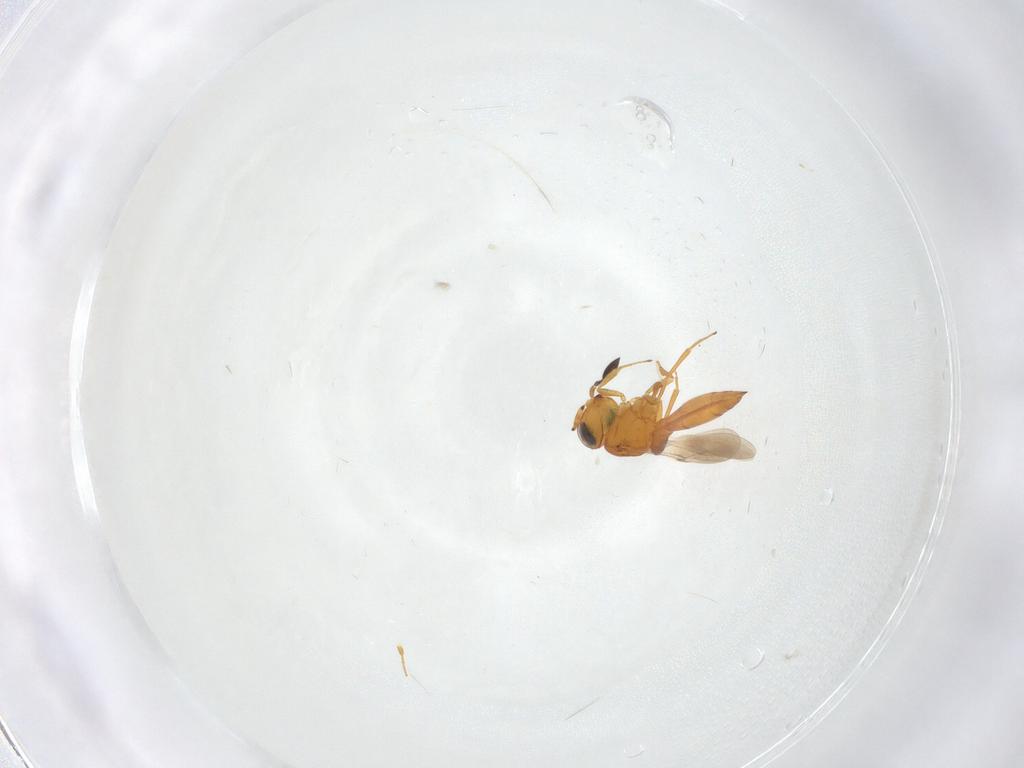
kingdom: Animalia
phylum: Arthropoda
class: Insecta
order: Hymenoptera
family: Scelionidae
